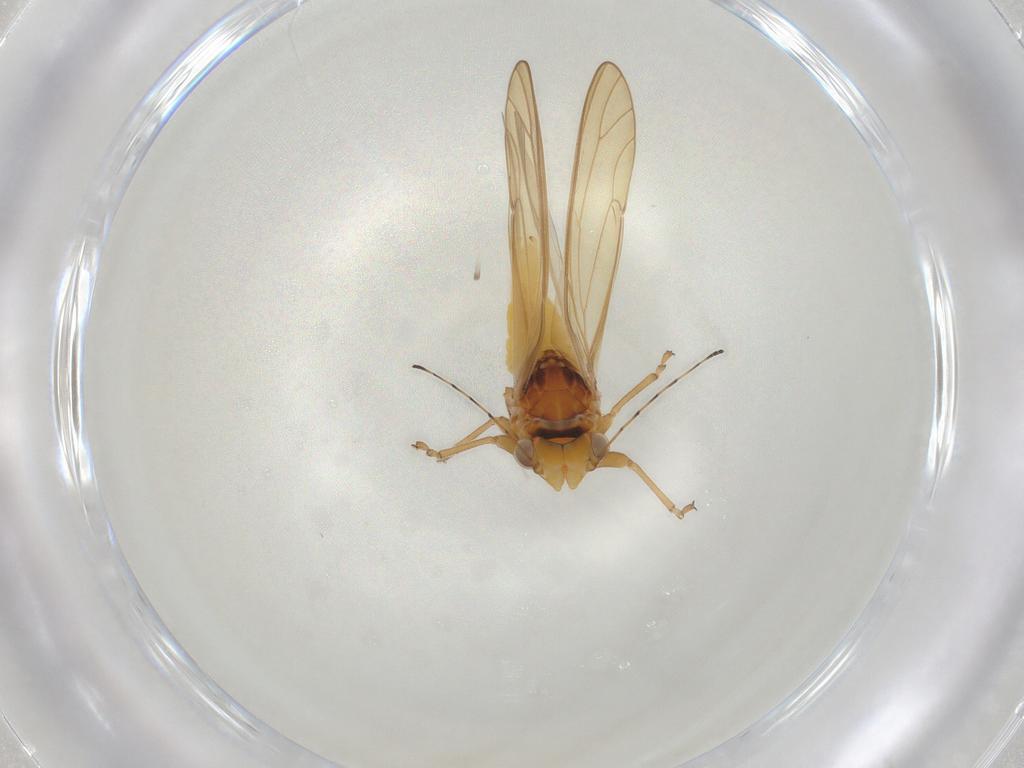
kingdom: Animalia
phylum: Arthropoda
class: Insecta
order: Hemiptera
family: Psylloidea_incertae_sedis
